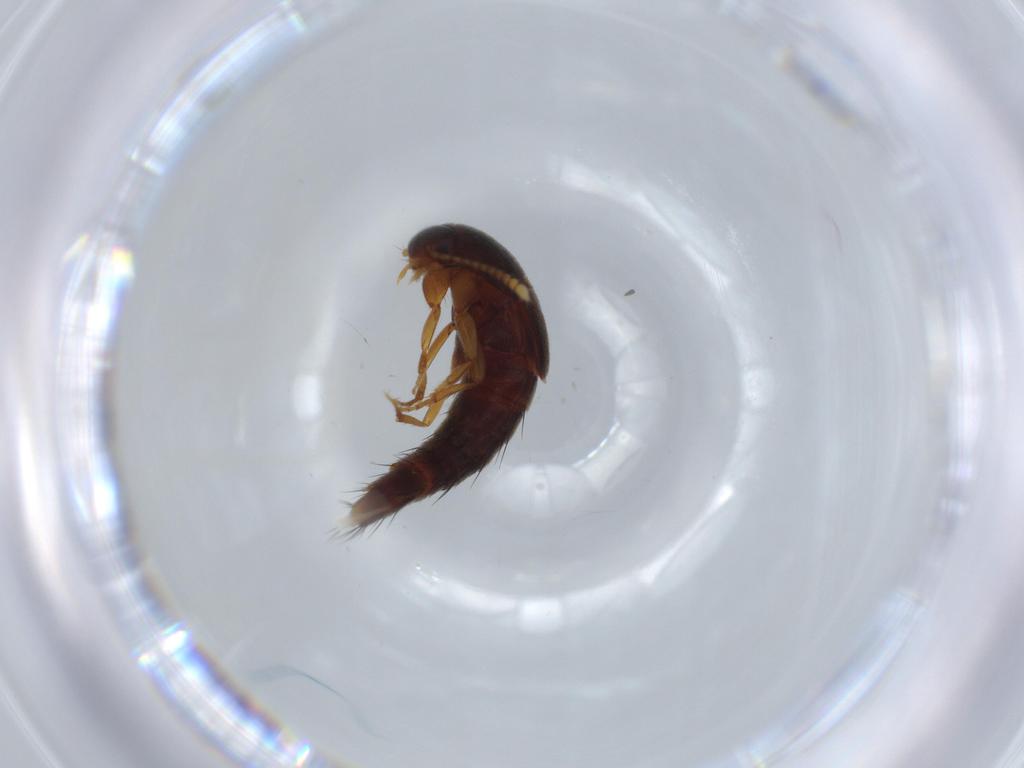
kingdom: Animalia
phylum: Arthropoda
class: Insecta
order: Coleoptera
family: Staphylinidae
